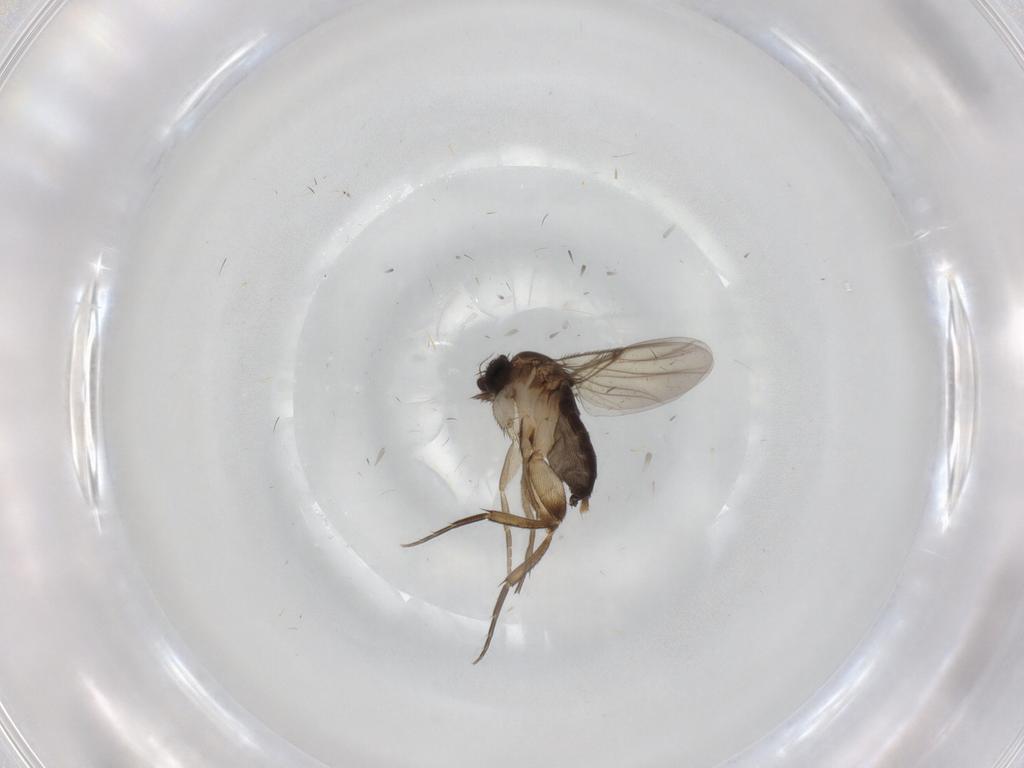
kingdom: Animalia
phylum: Arthropoda
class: Insecta
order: Diptera
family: Phoridae
